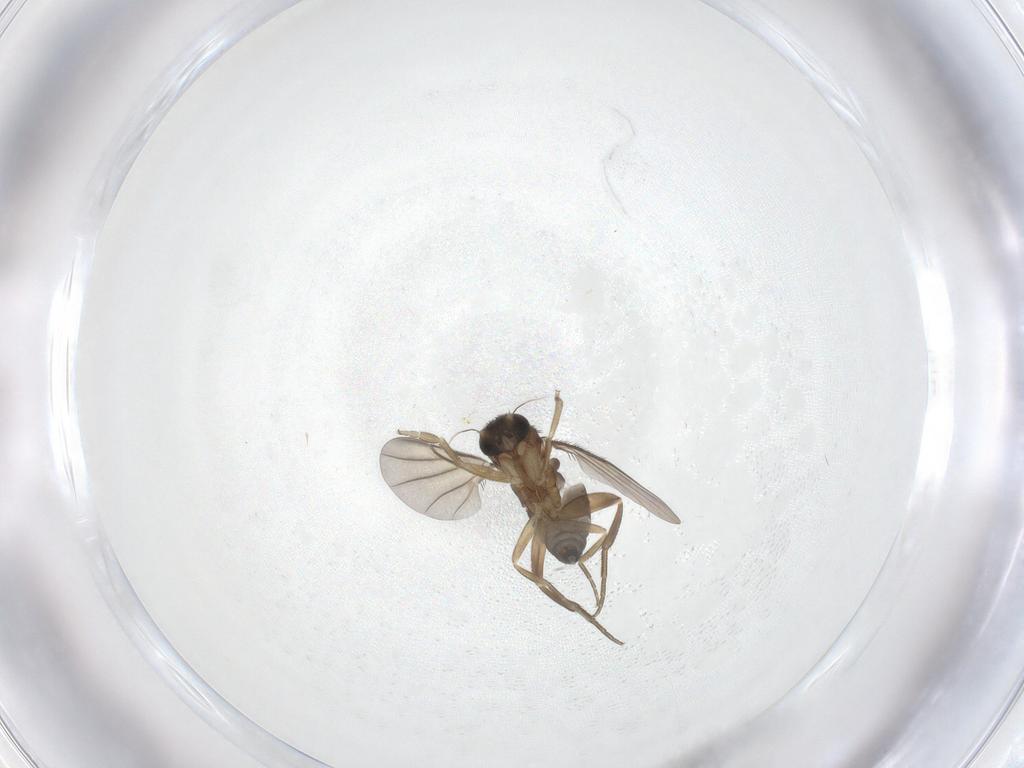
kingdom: Animalia
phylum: Arthropoda
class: Insecta
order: Diptera
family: Phoridae
